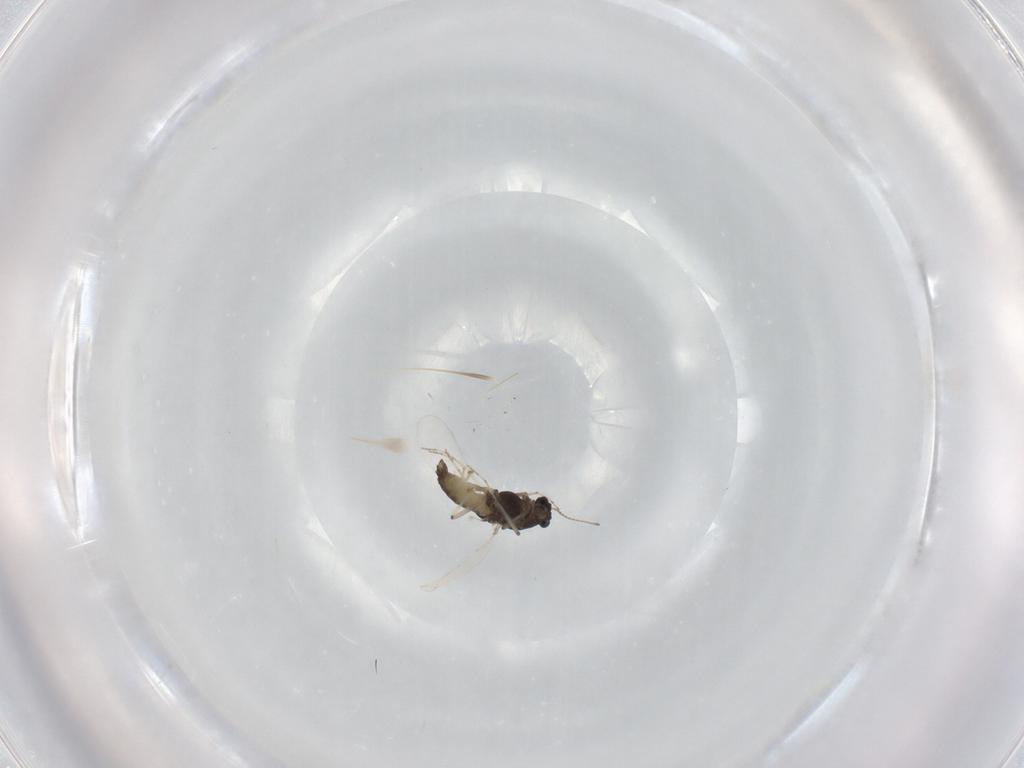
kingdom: Animalia
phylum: Arthropoda
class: Insecta
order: Diptera
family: Chironomidae
